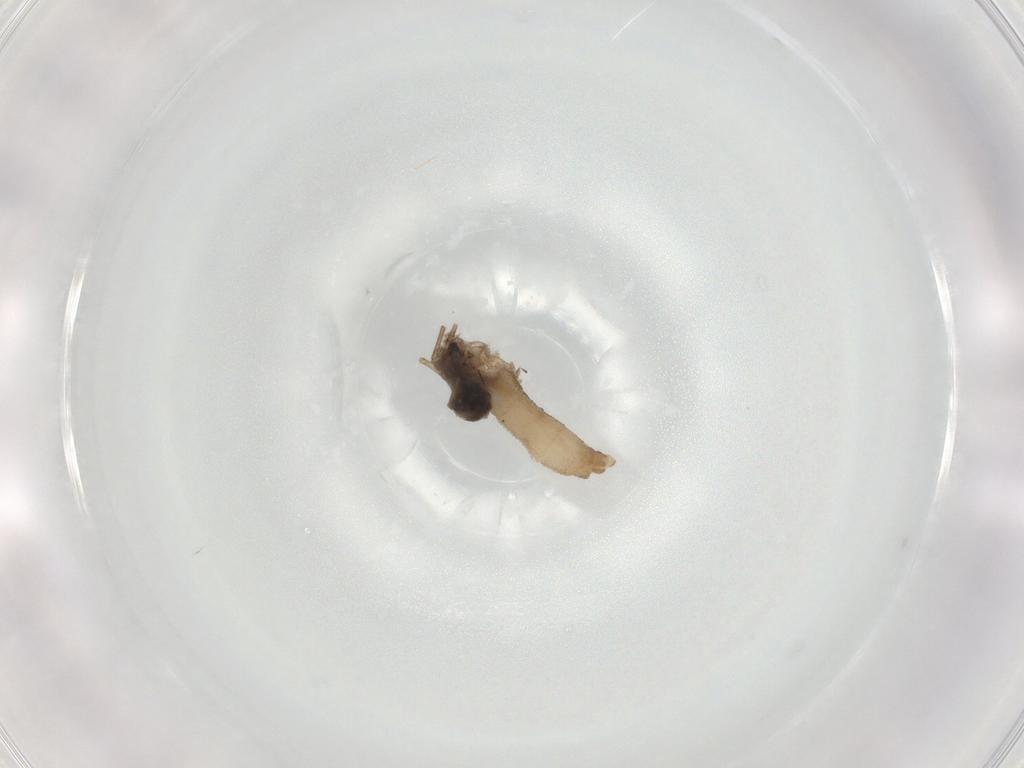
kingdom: Animalia
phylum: Arthropoda
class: Insecta
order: Diptera
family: Cecidomyiidae
